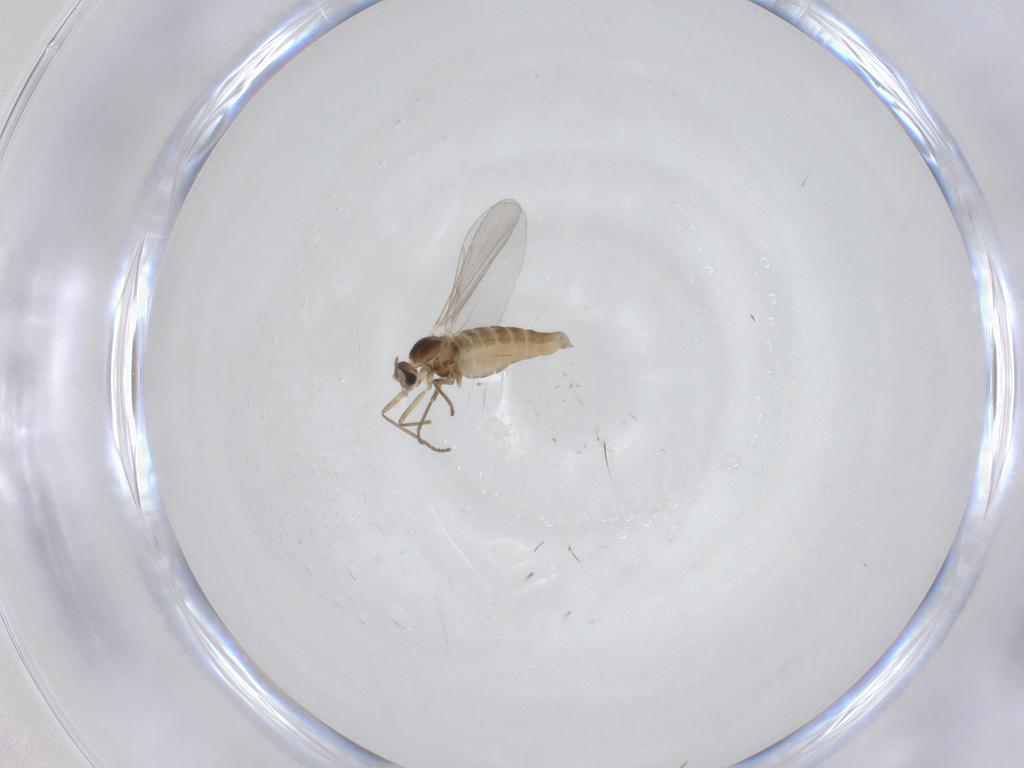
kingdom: Animalia
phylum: Arthropoda
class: Insecta
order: Diptera
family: Cecidomyiidae
